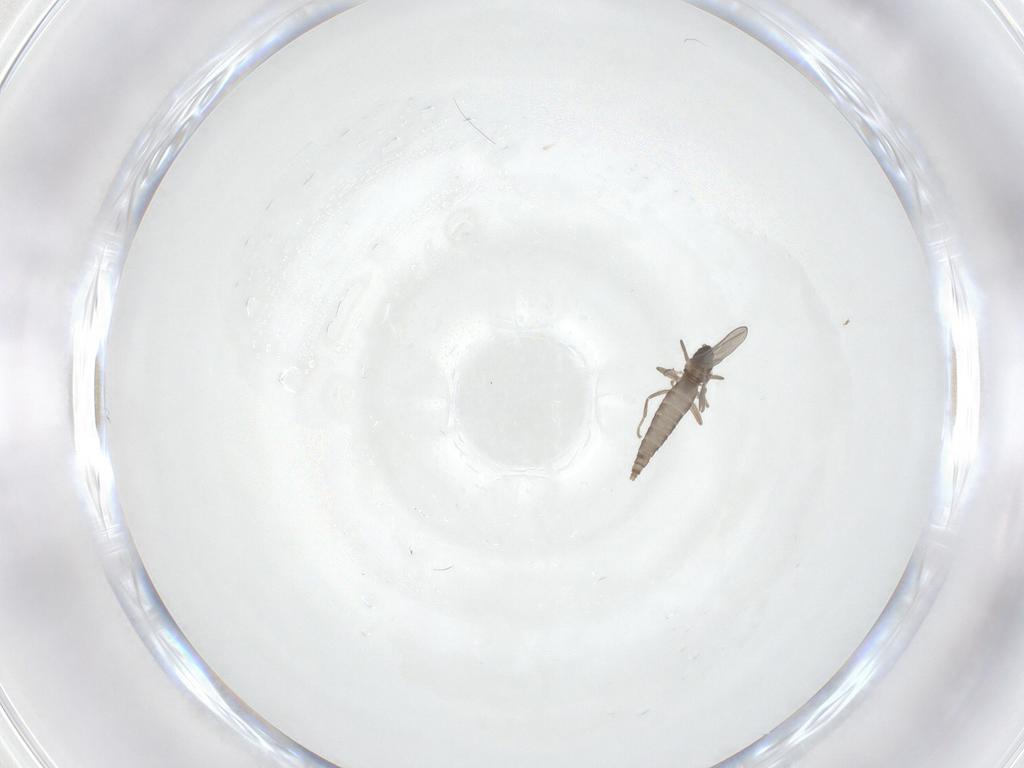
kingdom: Animalia
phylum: Arthropoda
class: Insecta
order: Diptera
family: Cecidomyiidae
